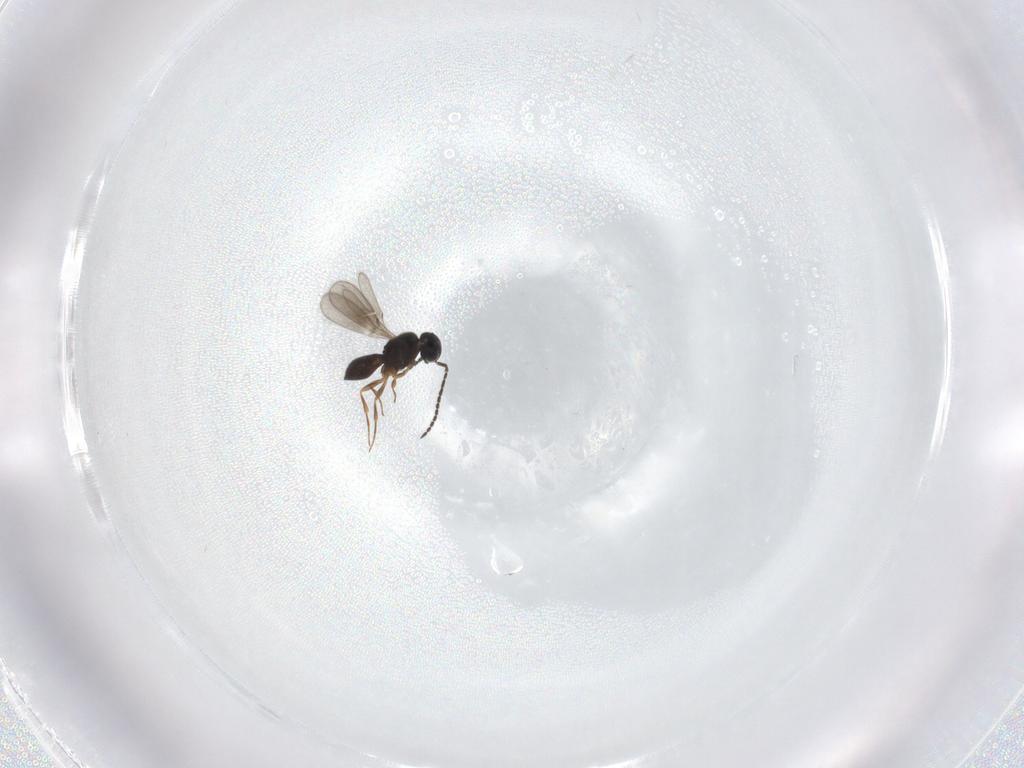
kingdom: Animalia
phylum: Arthropoda
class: Insecta
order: Hymenoptera
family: Scelionidae
